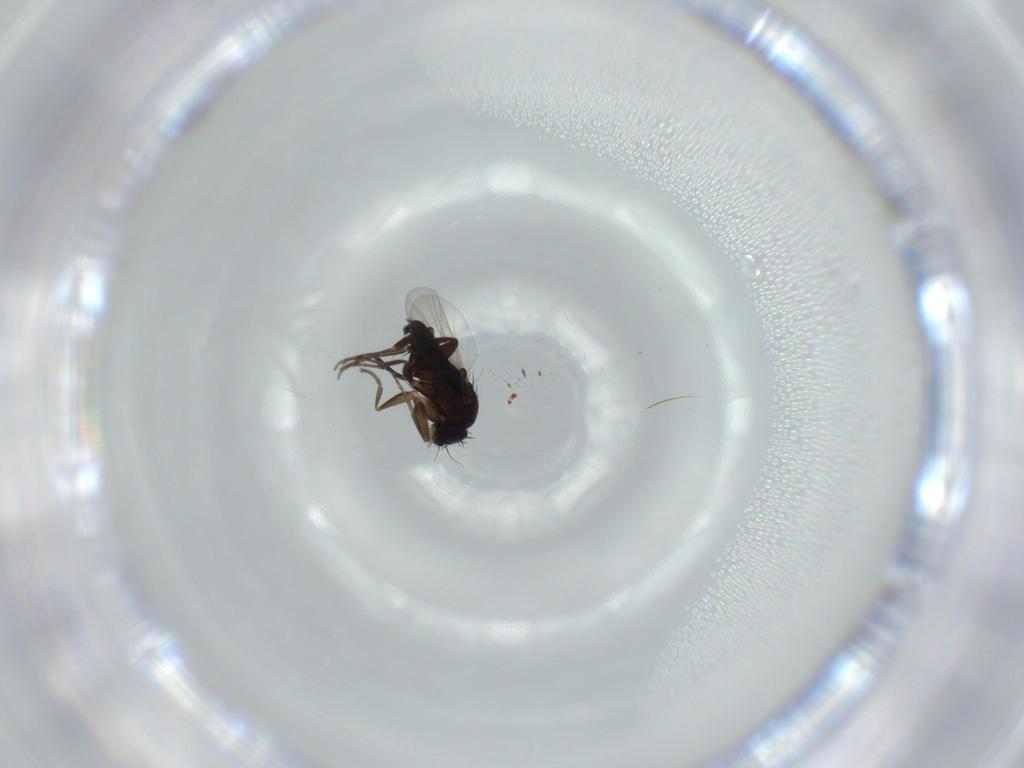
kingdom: Animalia
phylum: Arthropoda
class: Insecta
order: Diptera
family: Phoridae
